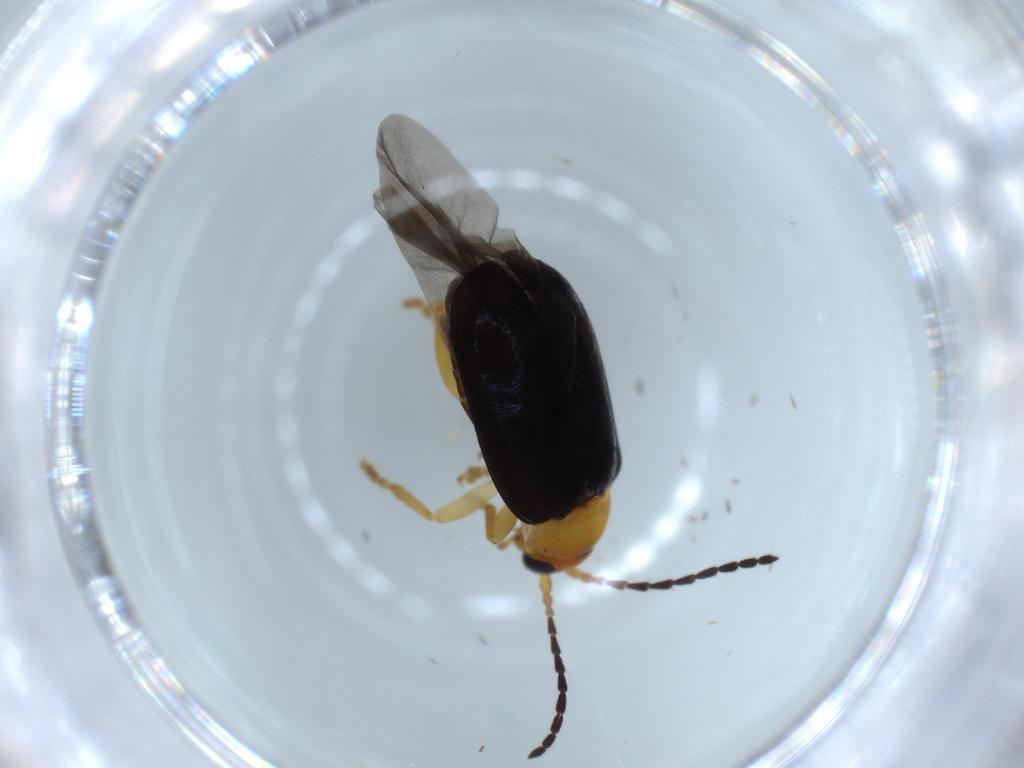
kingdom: Animalia
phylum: Arthropoda
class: Insecta
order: Coleoptera
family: Chrysomelidae
